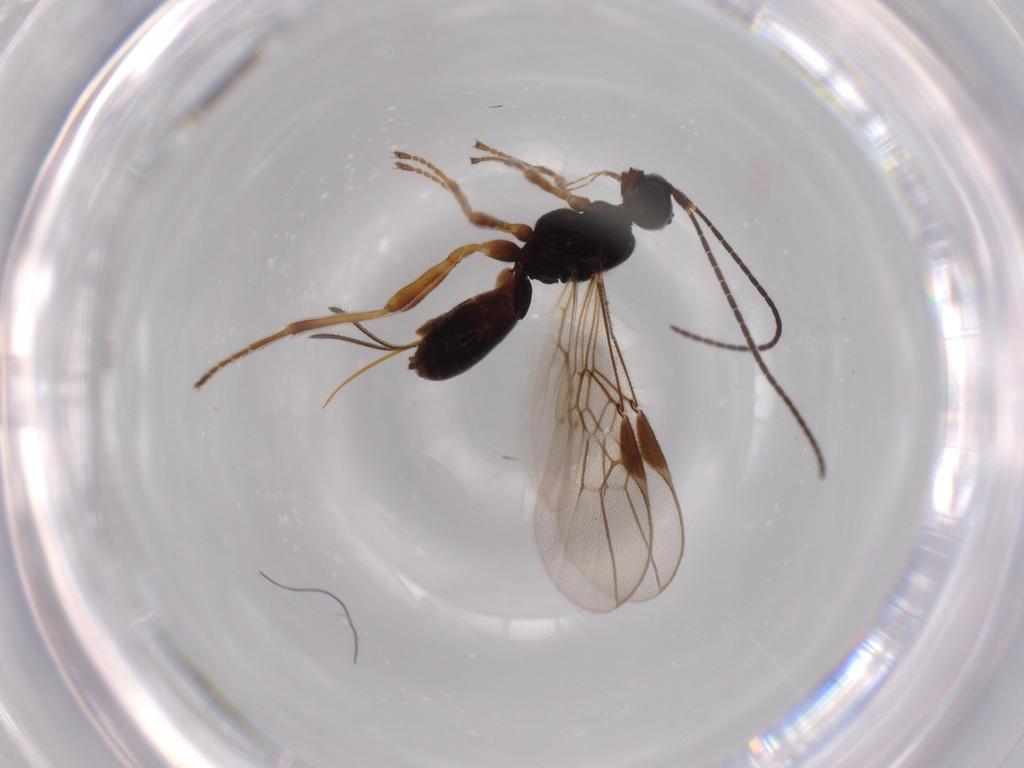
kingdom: Animalia
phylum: Arthropoda
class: Insecta
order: Hymenoptera
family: Braconidae
